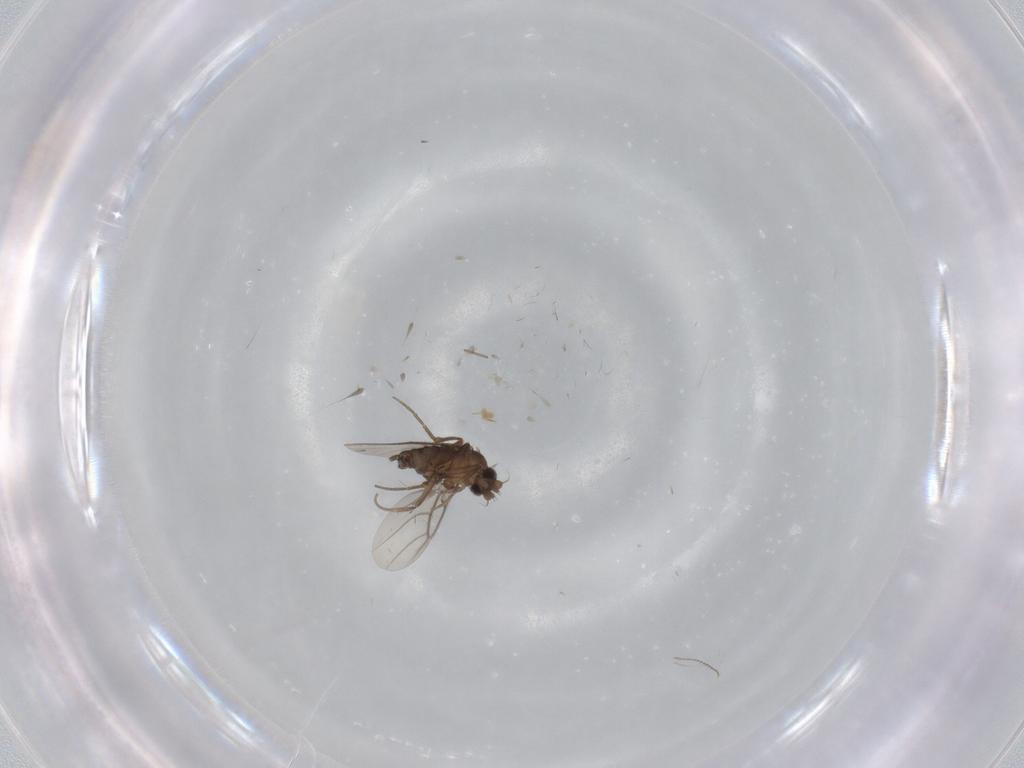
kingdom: Animalia
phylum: Arthropoda
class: Insecta
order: Diptera
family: Cecidomyiidae
